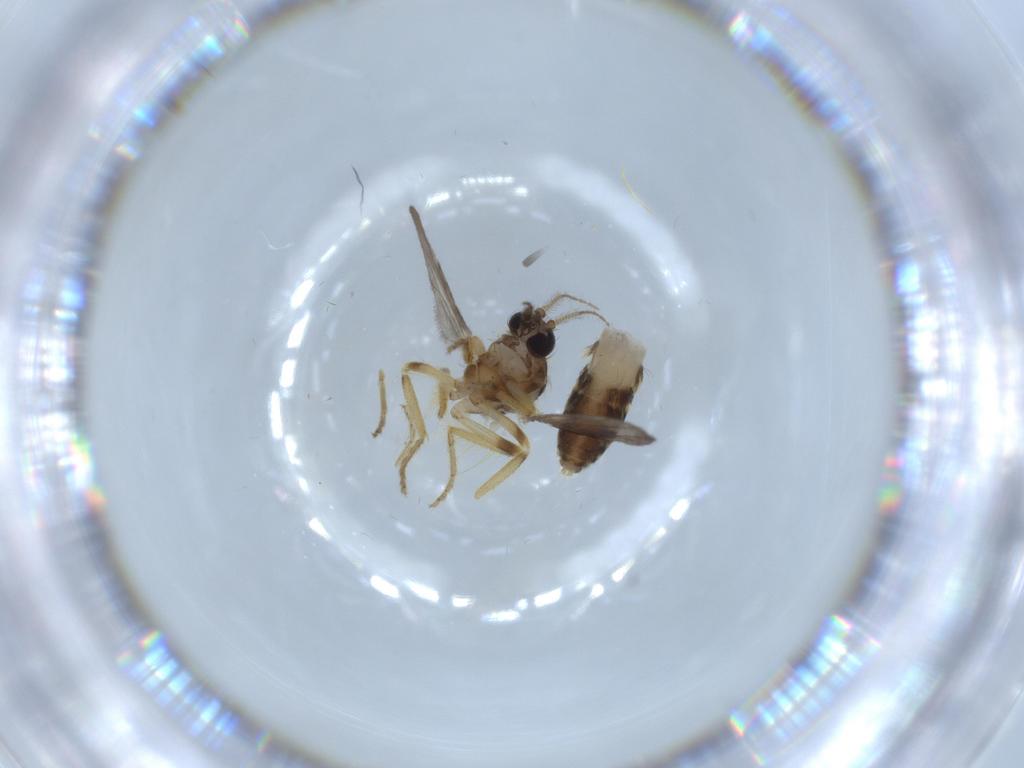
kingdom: Animalia
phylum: Arthropoda
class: Insecta
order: Diptera
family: Ceratopogonidae
